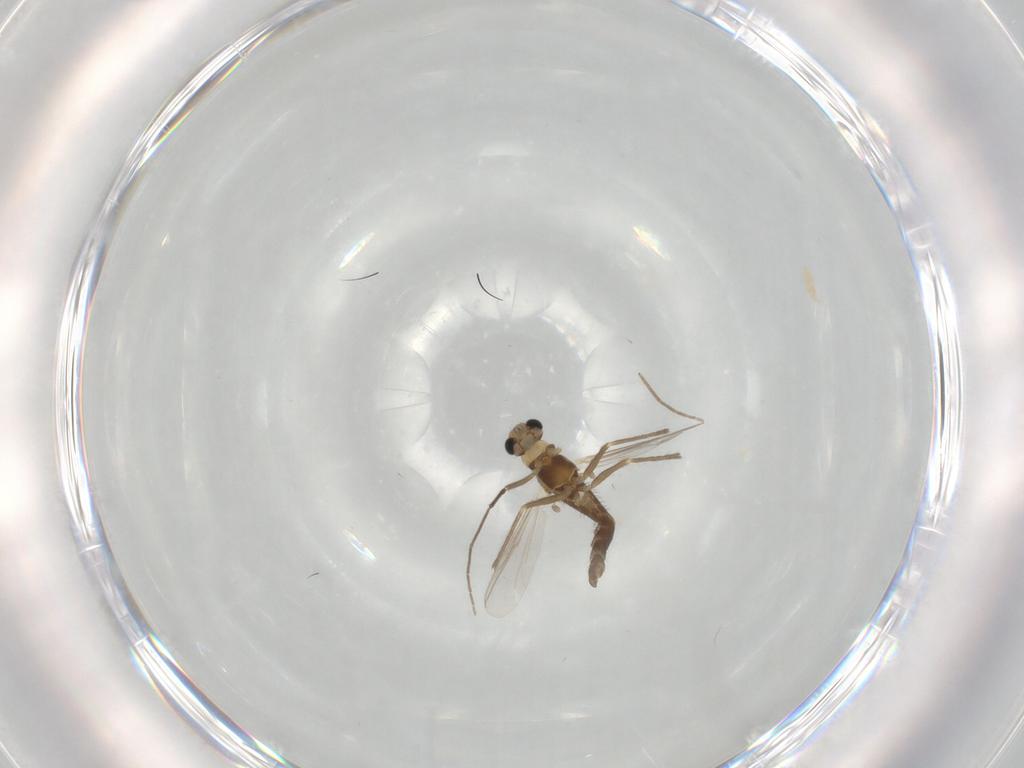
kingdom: Animalia
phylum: Arthropoda
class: Insecta
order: Diptera
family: Chironomidae
